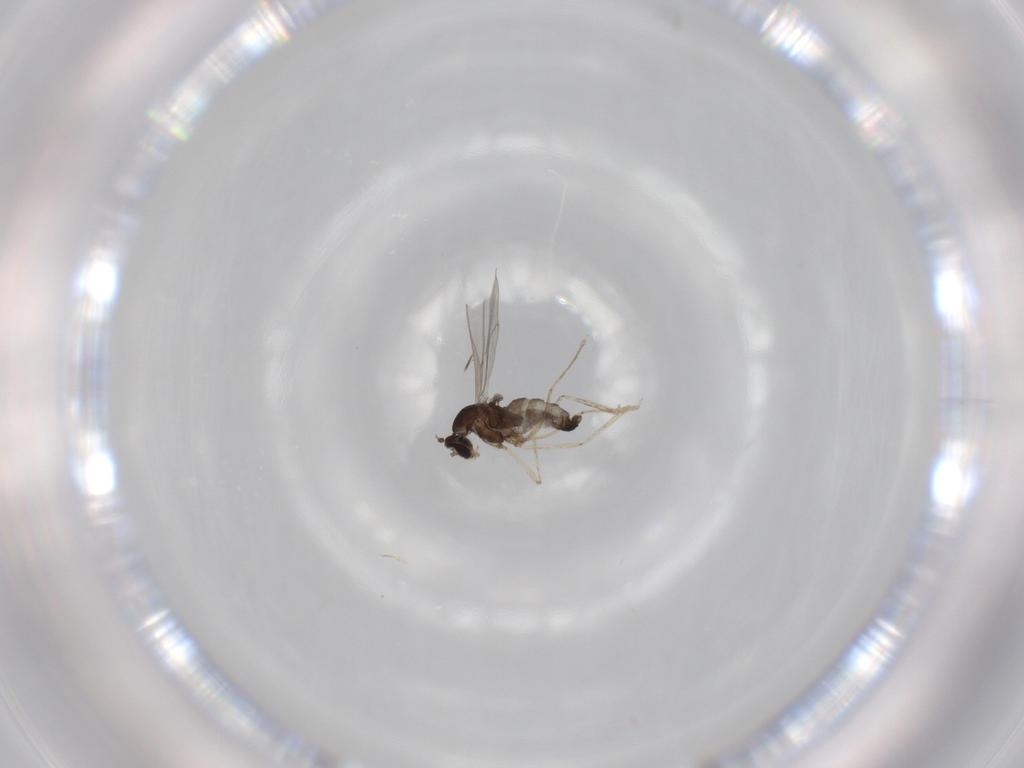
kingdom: Animalia
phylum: Arthropoda
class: Insecta
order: Diptera
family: Cecidomyiidae
